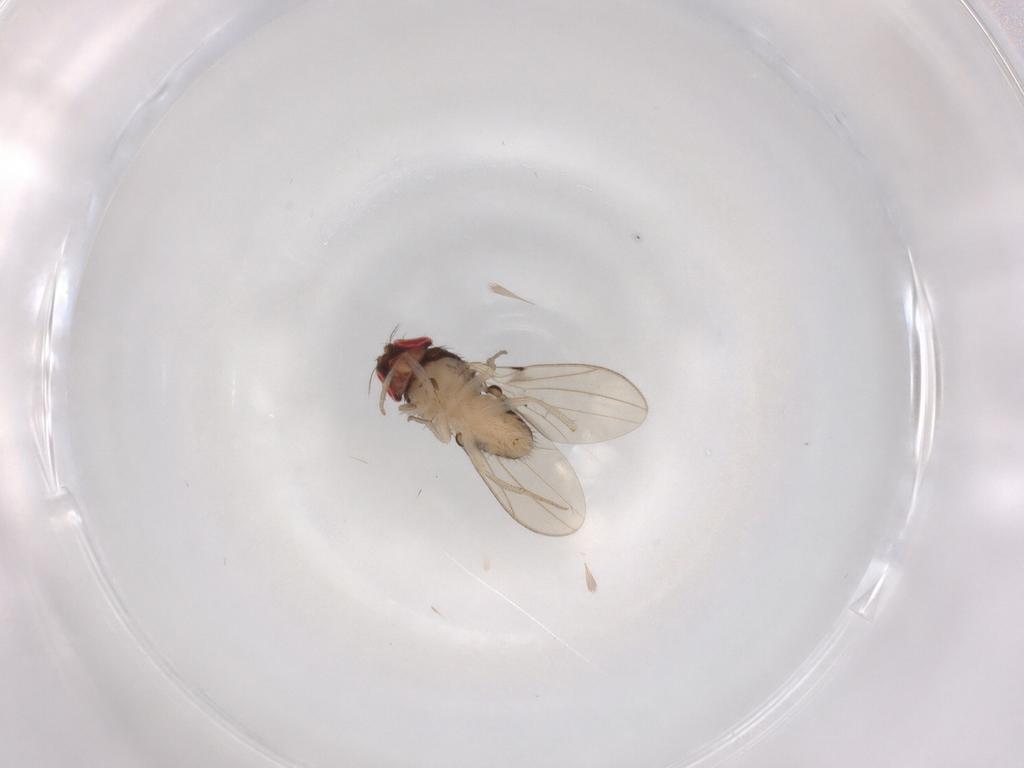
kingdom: Animalia
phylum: Arthropoda
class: Insecta
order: Diptera
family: Drosophilidae
